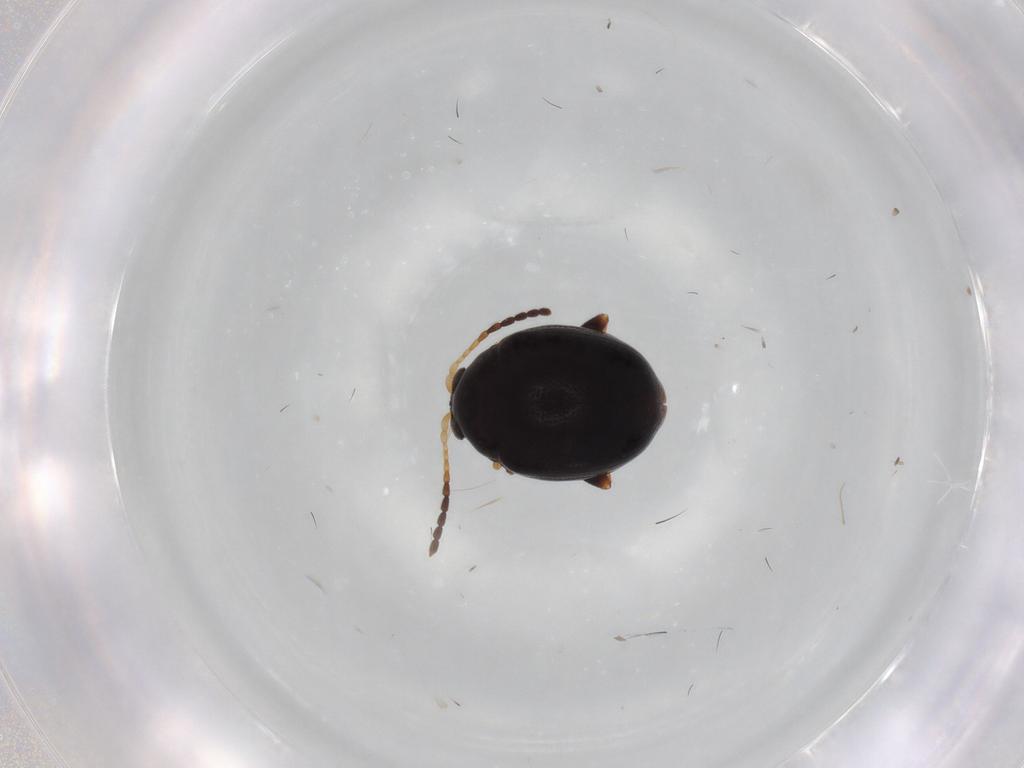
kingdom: Animalia
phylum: Arthropoda
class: Insecta
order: Coleoptera
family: Chrysomelidae
